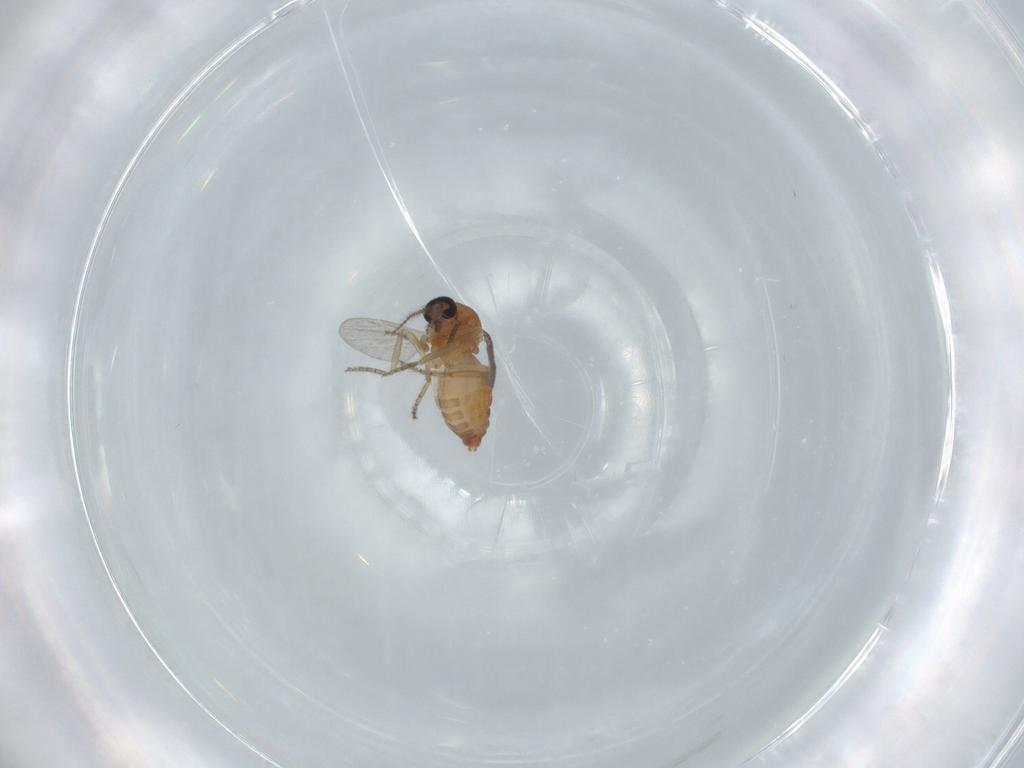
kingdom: Animalia
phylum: Arthropoda
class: Insecta
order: Diptera
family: Ceratopogonidae
